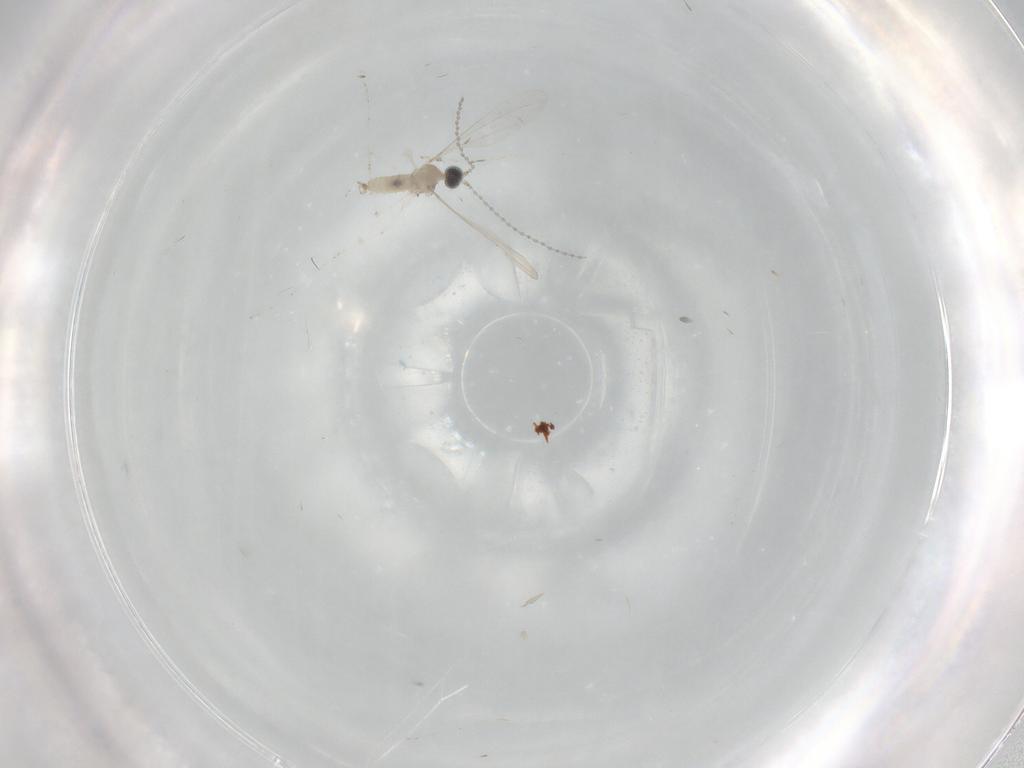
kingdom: Animalia
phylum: Arthropoda
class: Insecta
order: Diptera
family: Cecidomyiidae
